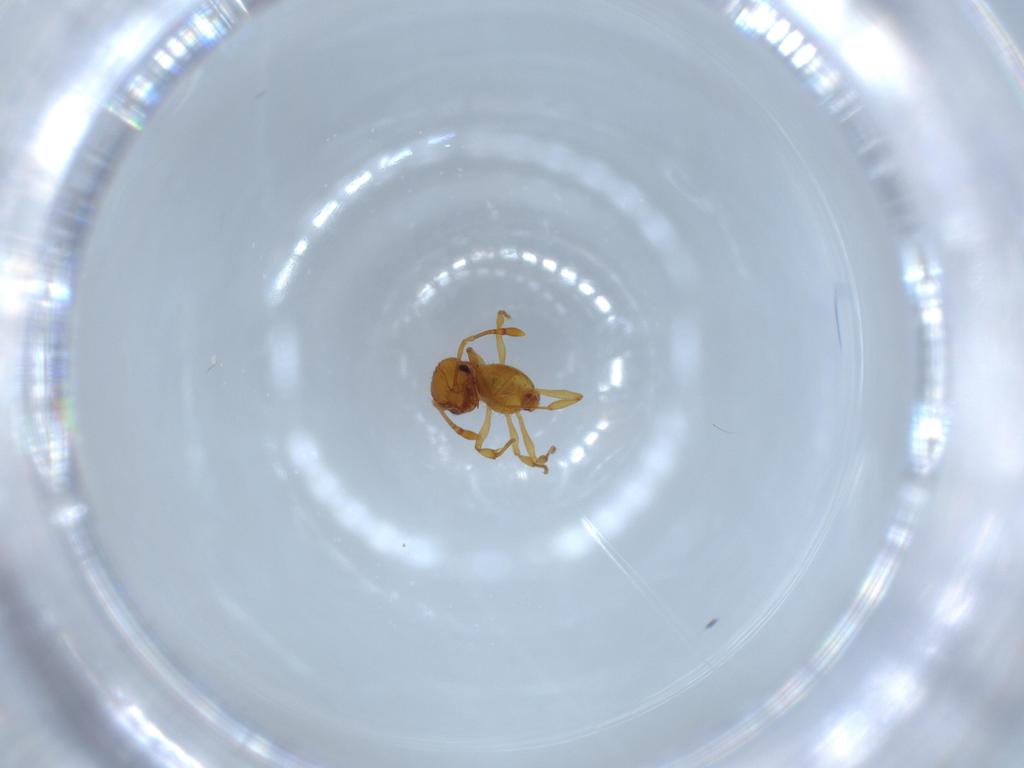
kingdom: Animalia
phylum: Arthropoda
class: Insecta
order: Hymenoptera
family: Formicidae
